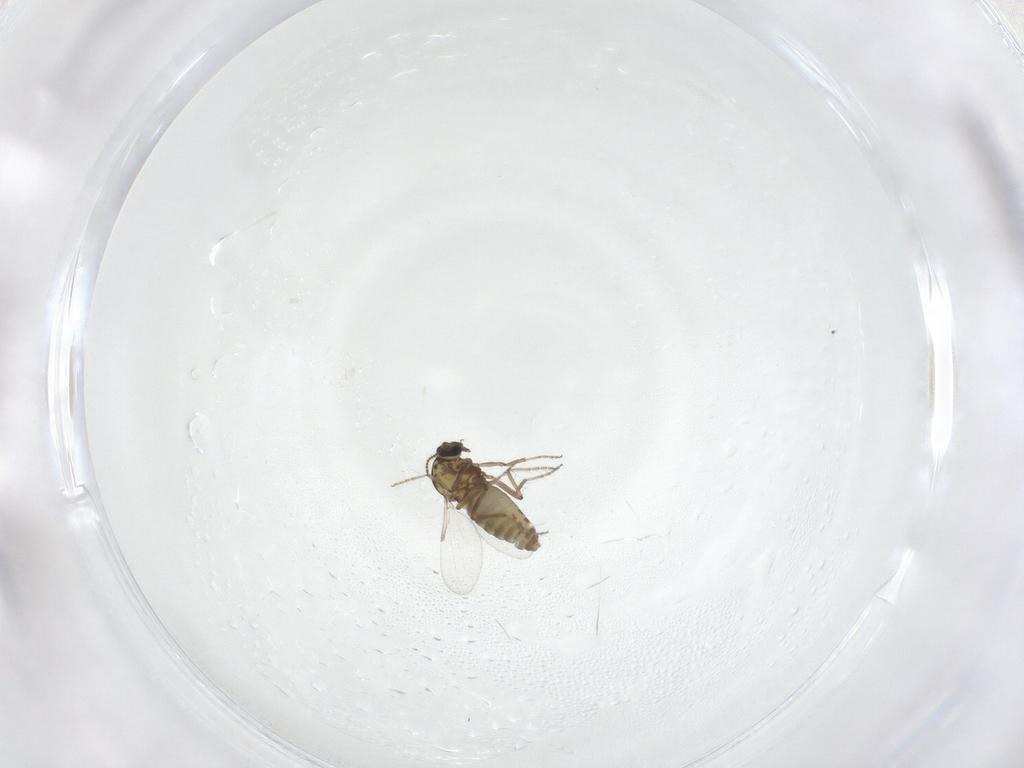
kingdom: Animalia
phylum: Arthropoda
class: Insecta
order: Diptera
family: Ceratopogonidae
